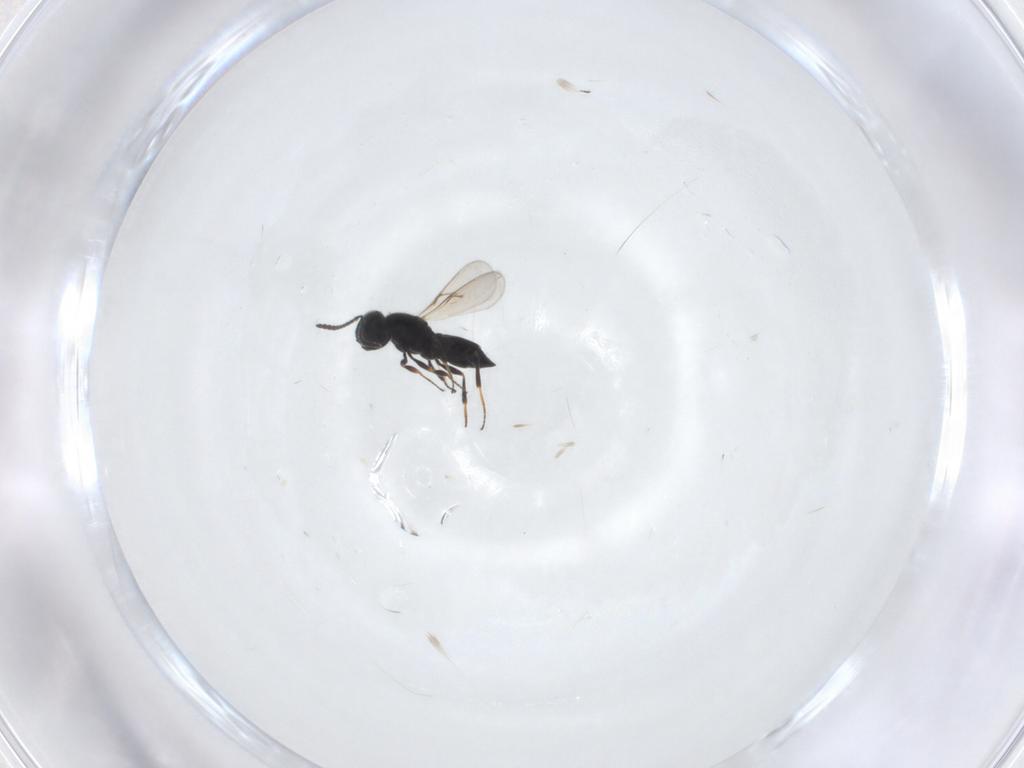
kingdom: Animalia
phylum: Arthropoda
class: Insecta
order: Hymenoptera
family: Scelionidae
